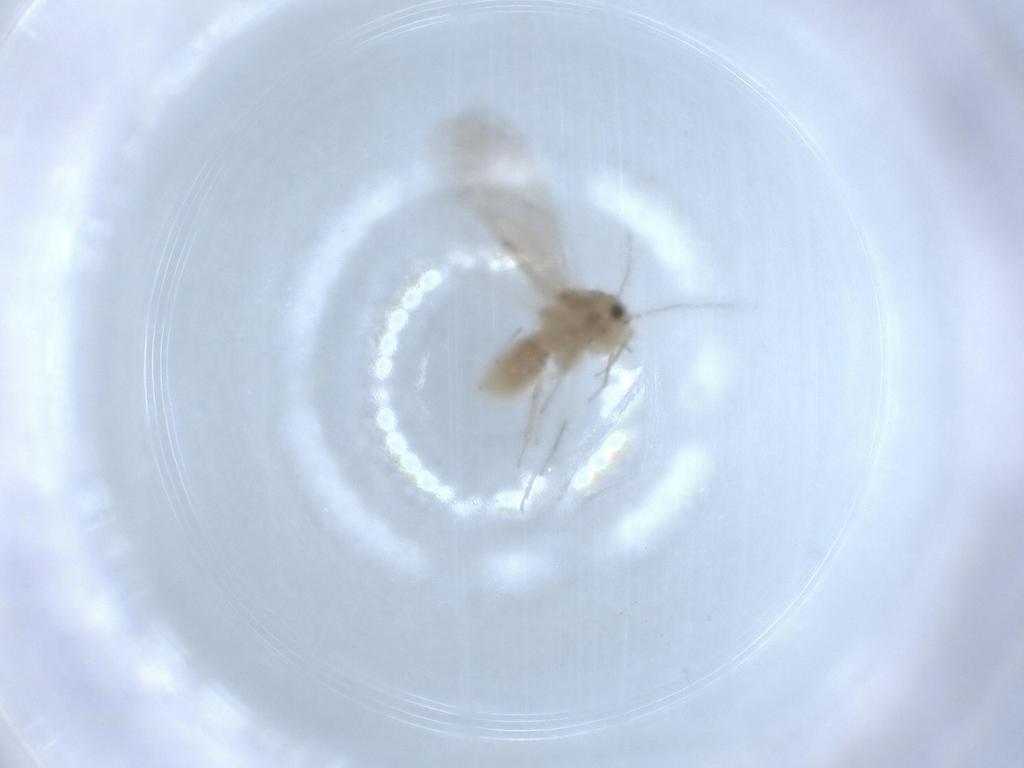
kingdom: Animalia
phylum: Arthropoda
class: Insecta
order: Psocodea
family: Lachesillidae
